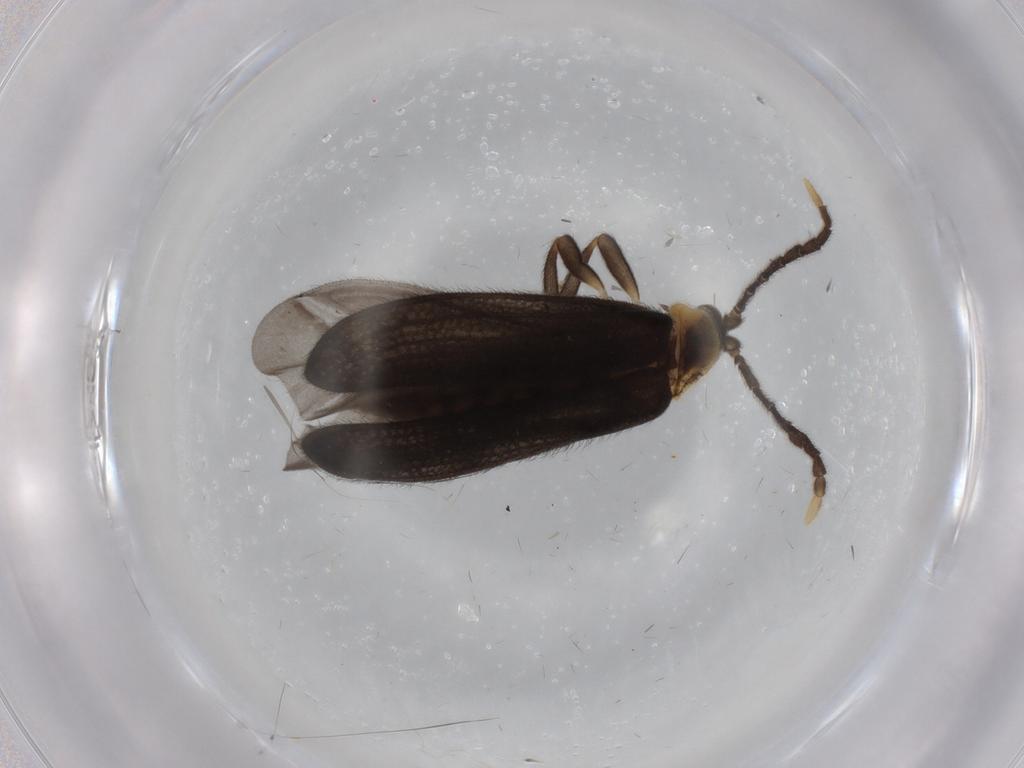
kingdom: Animalia
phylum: Arthropoda
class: Insecta
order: Coleoptera
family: Lycidae
